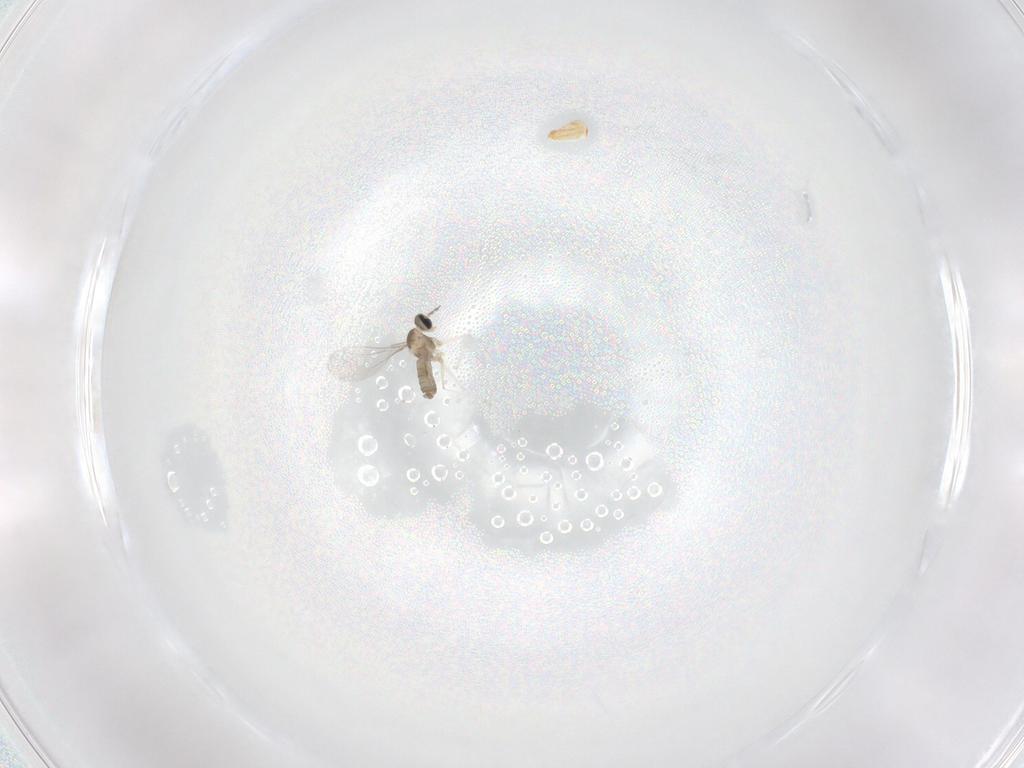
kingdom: Animalia
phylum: Arthropoda
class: Insecta
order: Diptera
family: Cecidomyiidae
